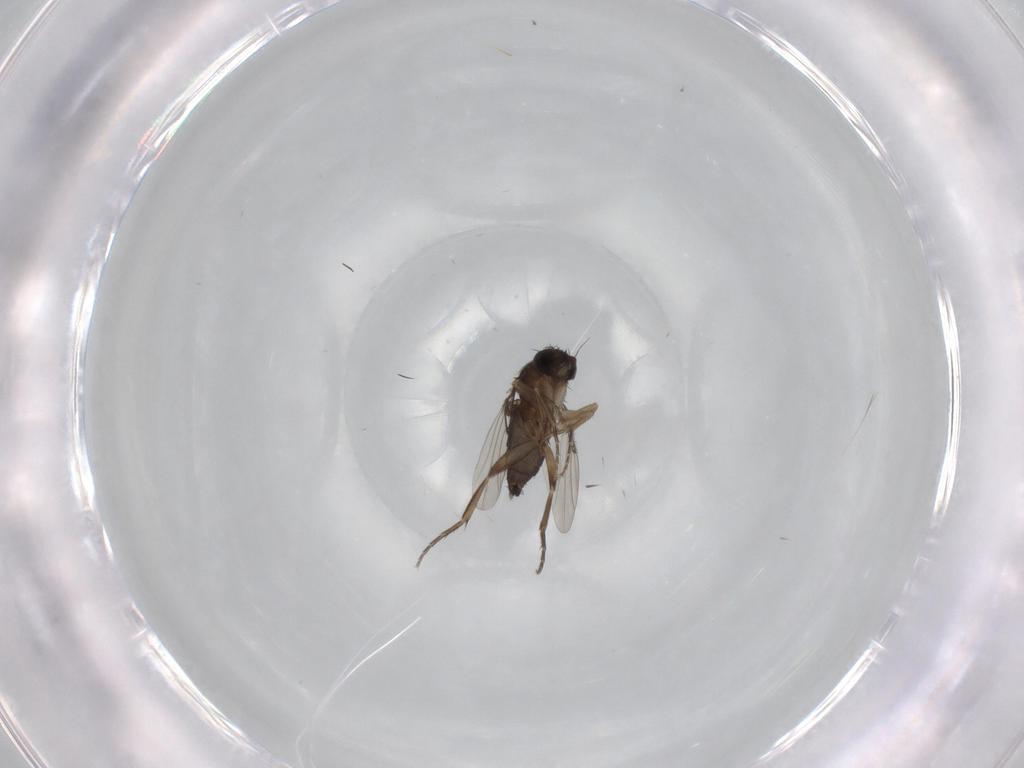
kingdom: Animalia
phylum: Arthropoda
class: Insecta
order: Diptera
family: Phoridae
